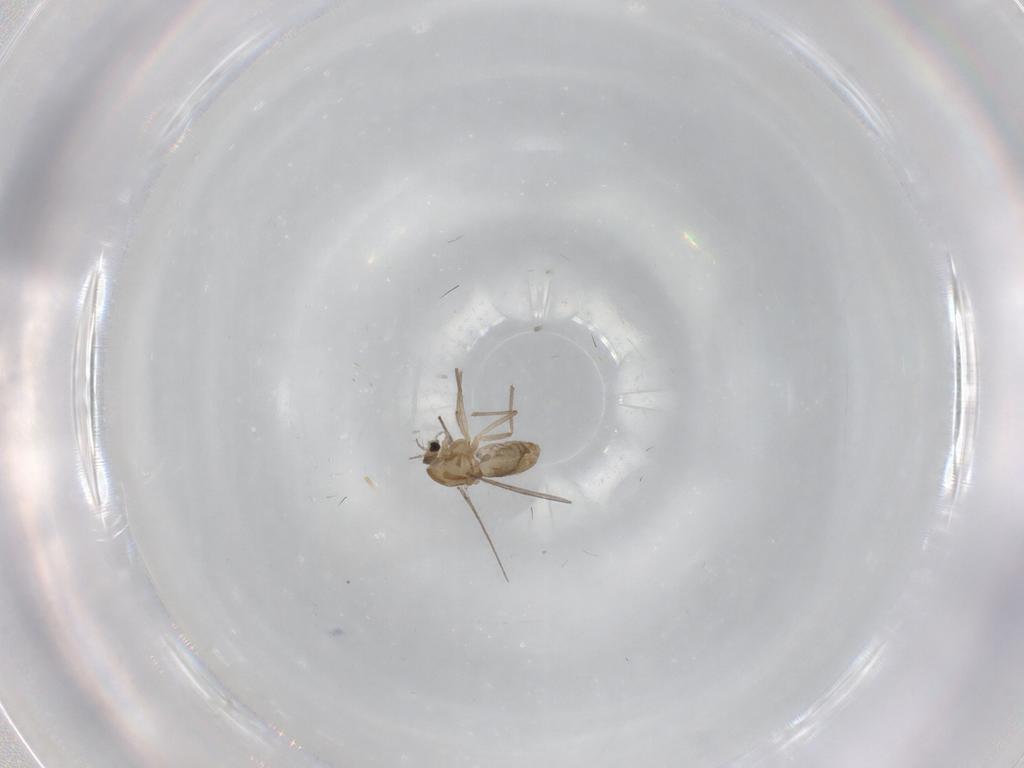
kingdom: Animalia
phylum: Arthropoda
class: Insecta
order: Diptera
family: Chironomidae
